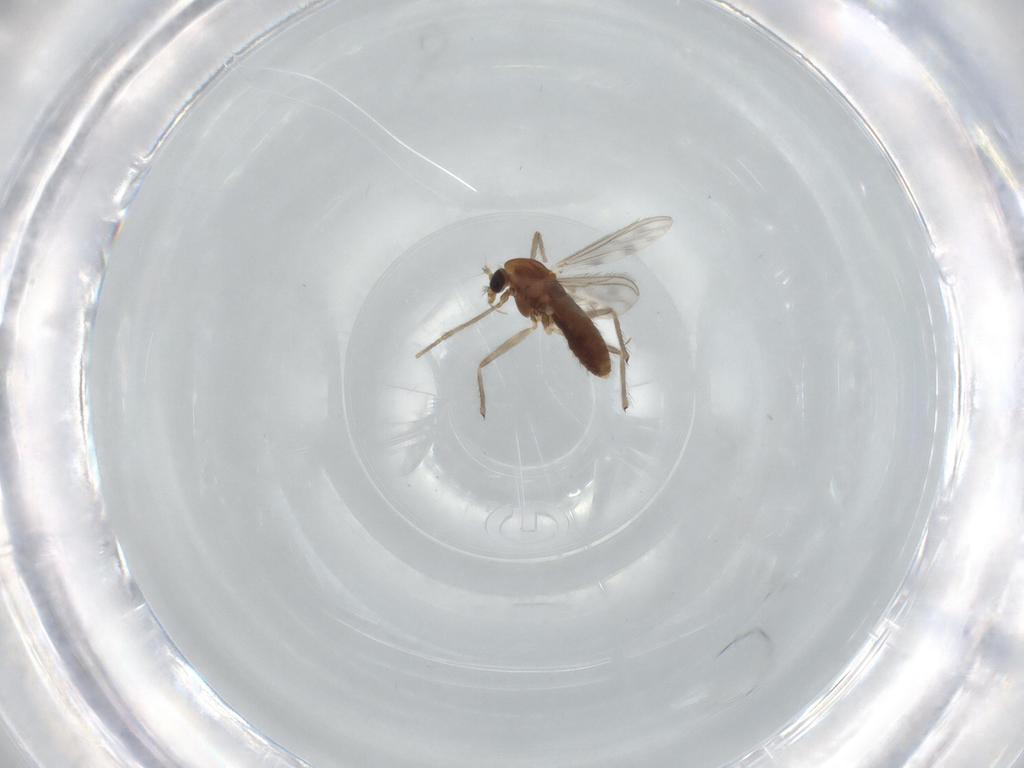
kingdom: Animalia
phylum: Arthropoda
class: Insecta
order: Diptera
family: Chironomidae
